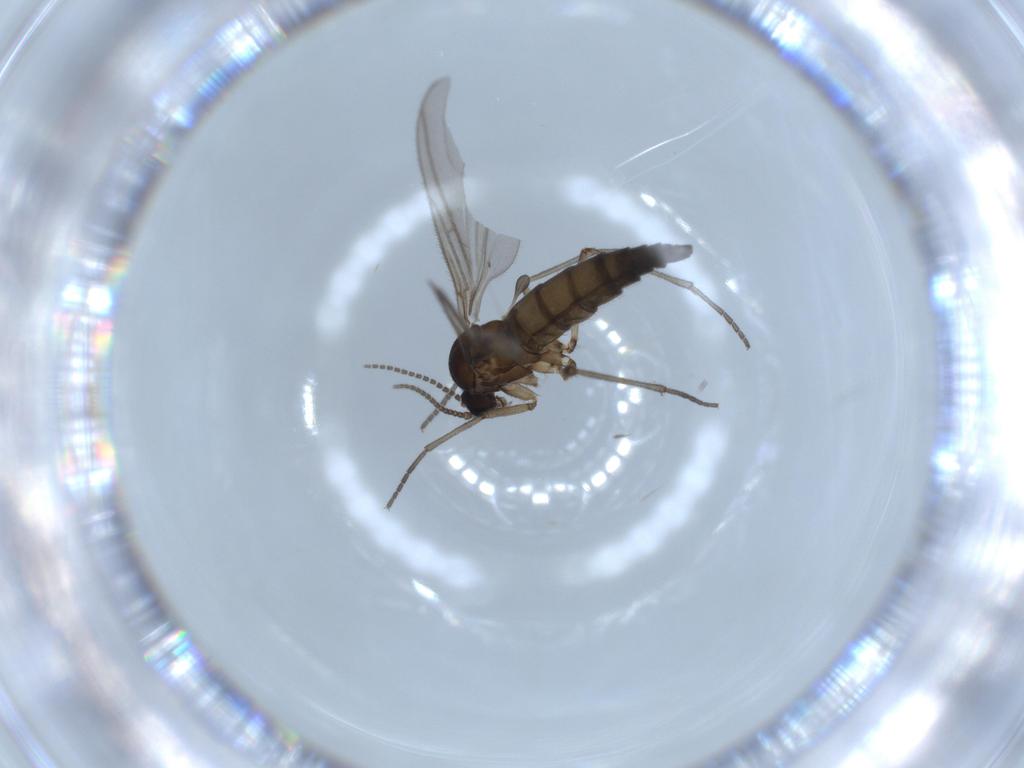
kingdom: Animalia
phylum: Arthropoda
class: Insecta
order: Diptera
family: Sciaridae
